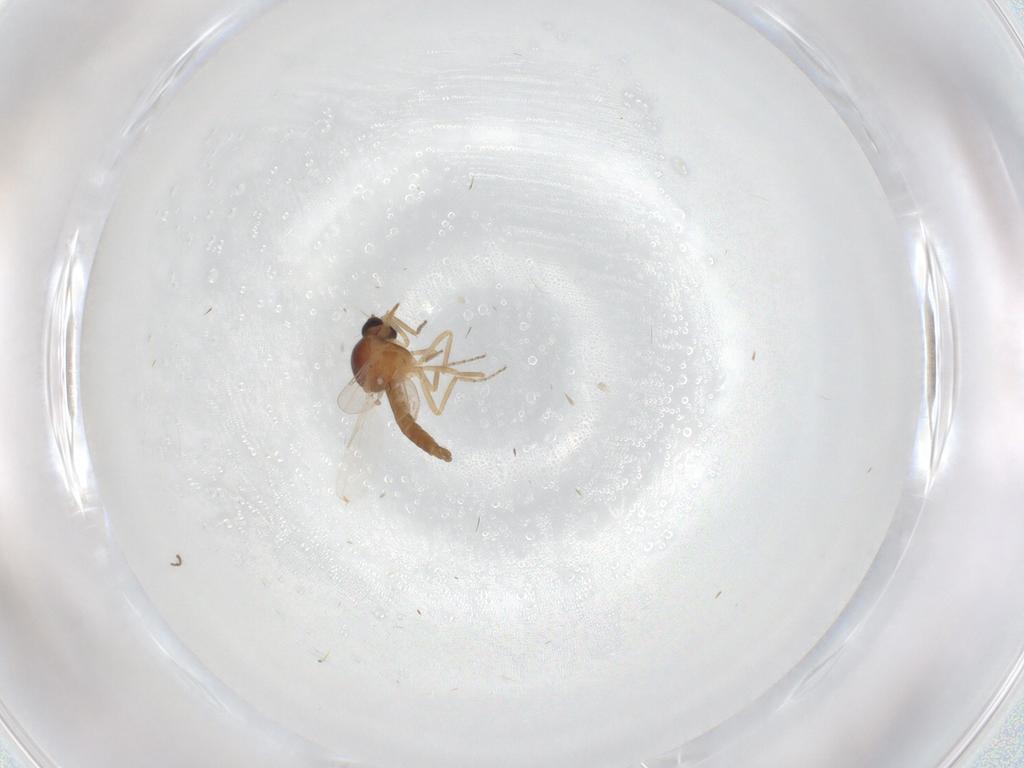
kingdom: Animalia
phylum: Arthropoda
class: Insecta
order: Diptera
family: Ceratopogonidae
